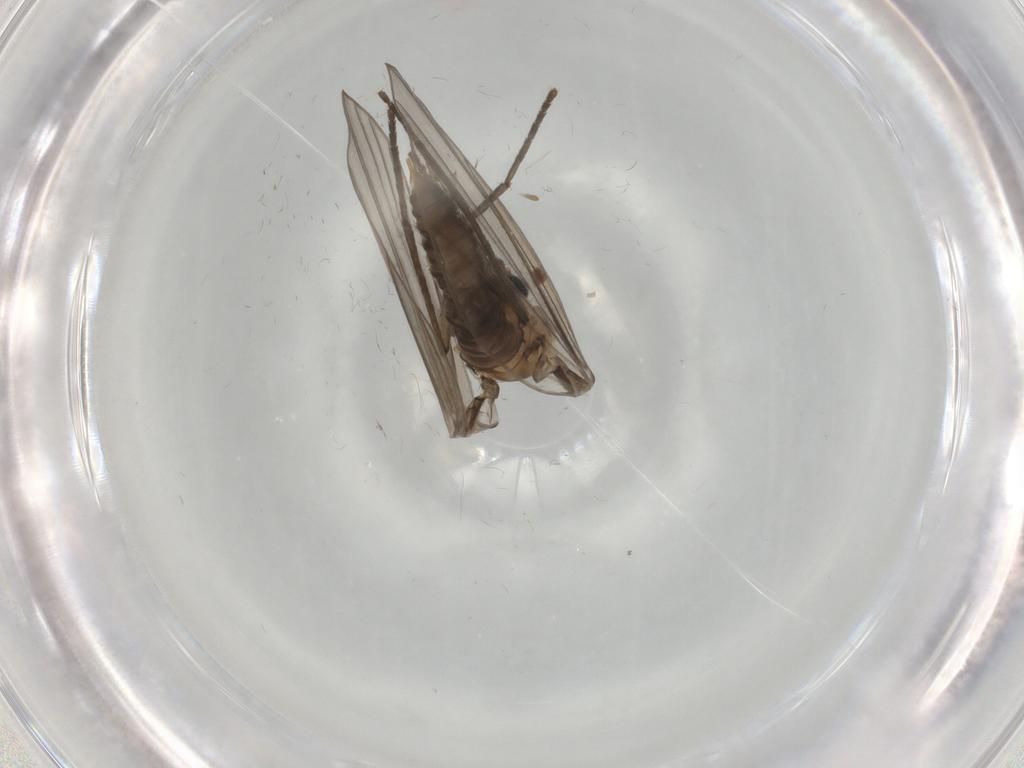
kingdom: Animalia
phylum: Arthropoda
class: Insecta
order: Diptera
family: Psychodidae
